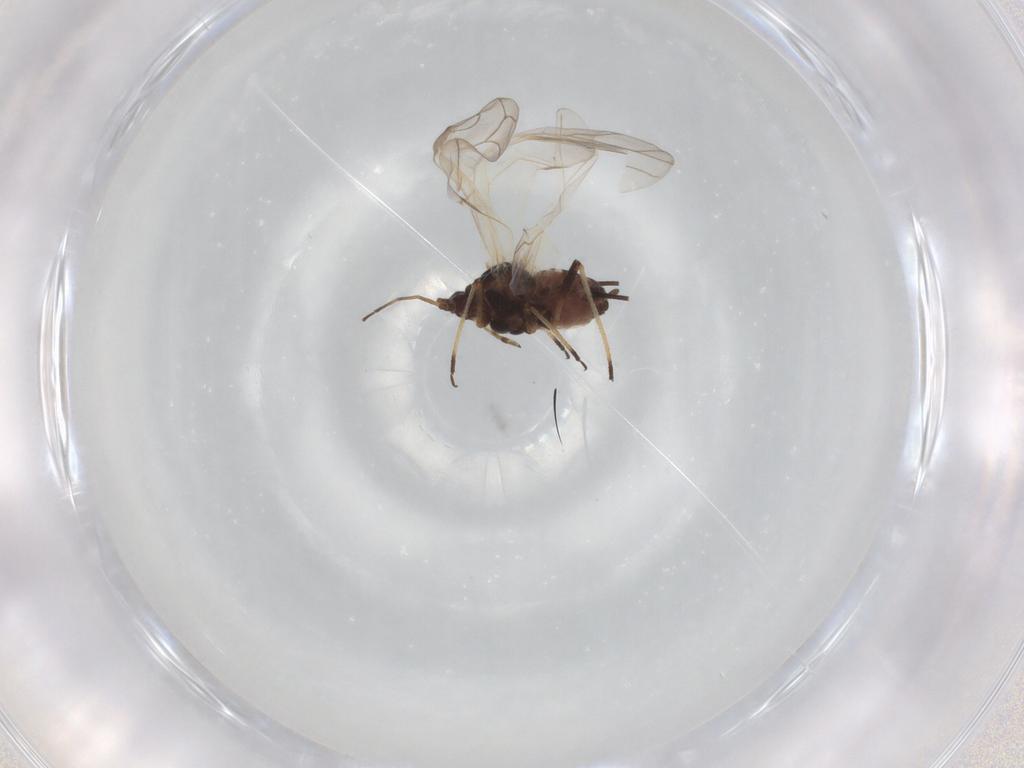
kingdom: Animalia
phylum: Arthropoda
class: Insecta
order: Hemiptera
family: Aphididae
